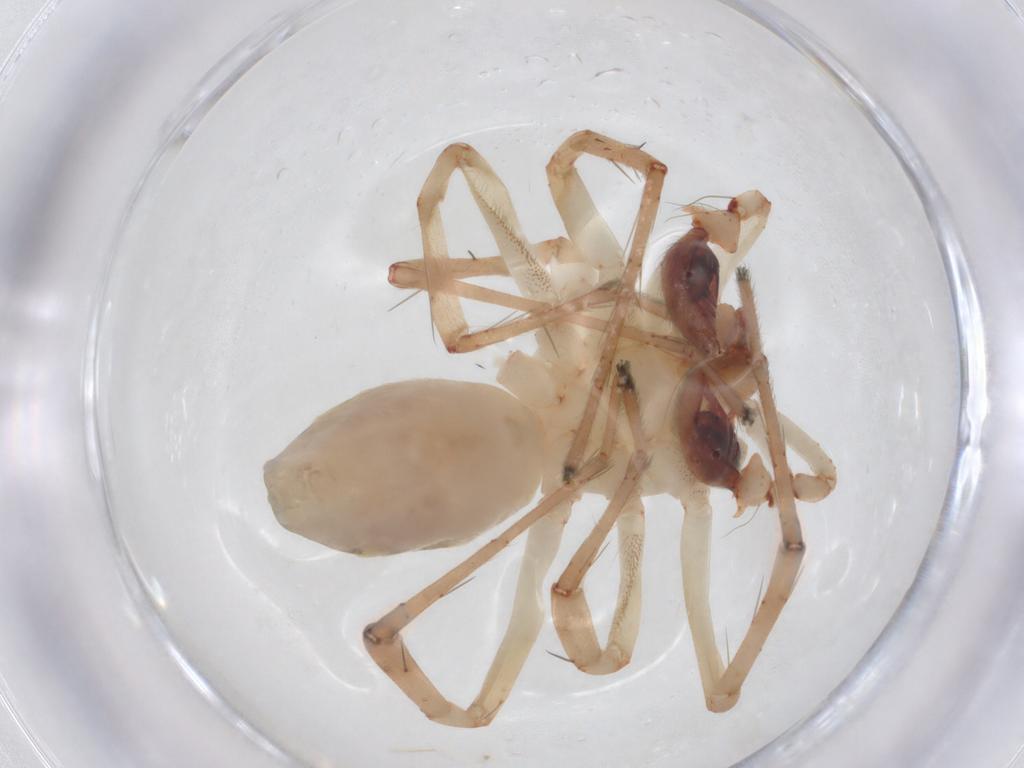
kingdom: Animalia
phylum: Arthropoda
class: Arachnida
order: Araneae
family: Anyphaenidae
